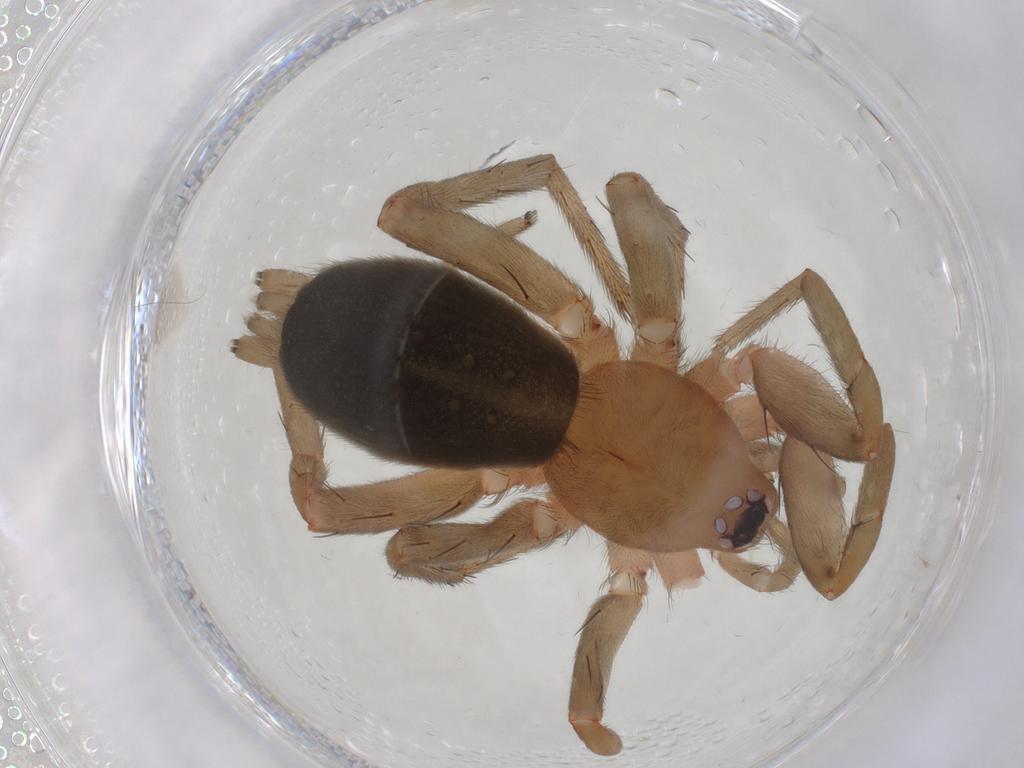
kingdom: Animalia
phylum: Arthropoda
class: Arachnida
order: Araneae
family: Gnaphosidae
